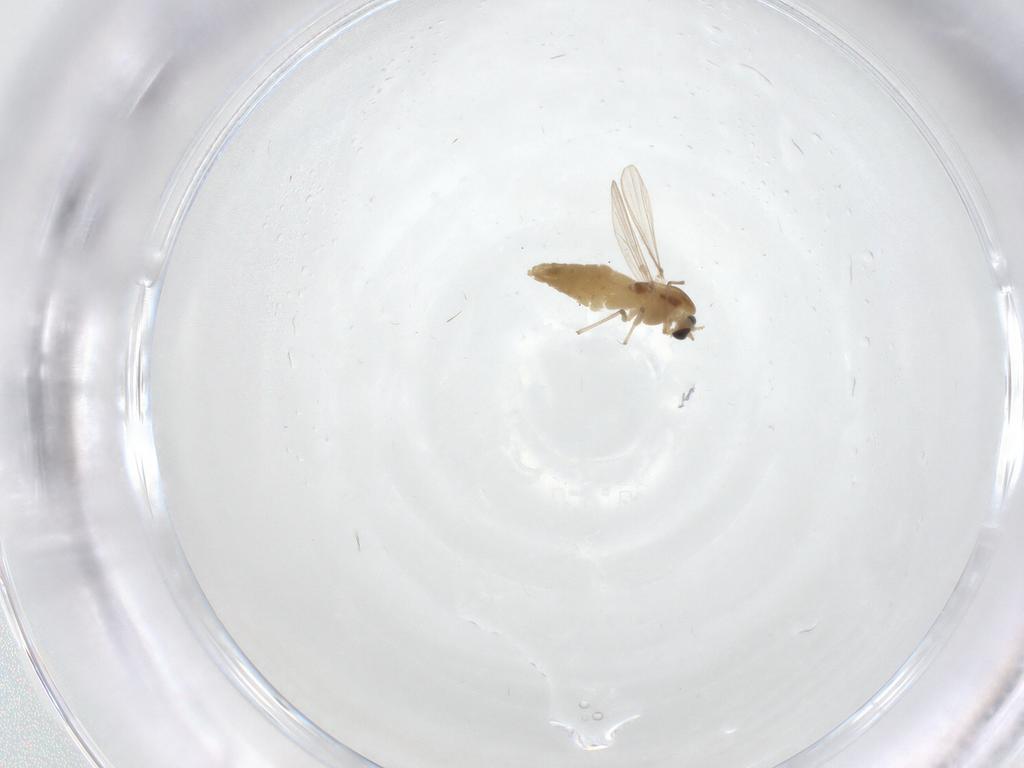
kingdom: Animalia
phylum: Arthropoda
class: Insecta
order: Diptera
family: Chironomidae
